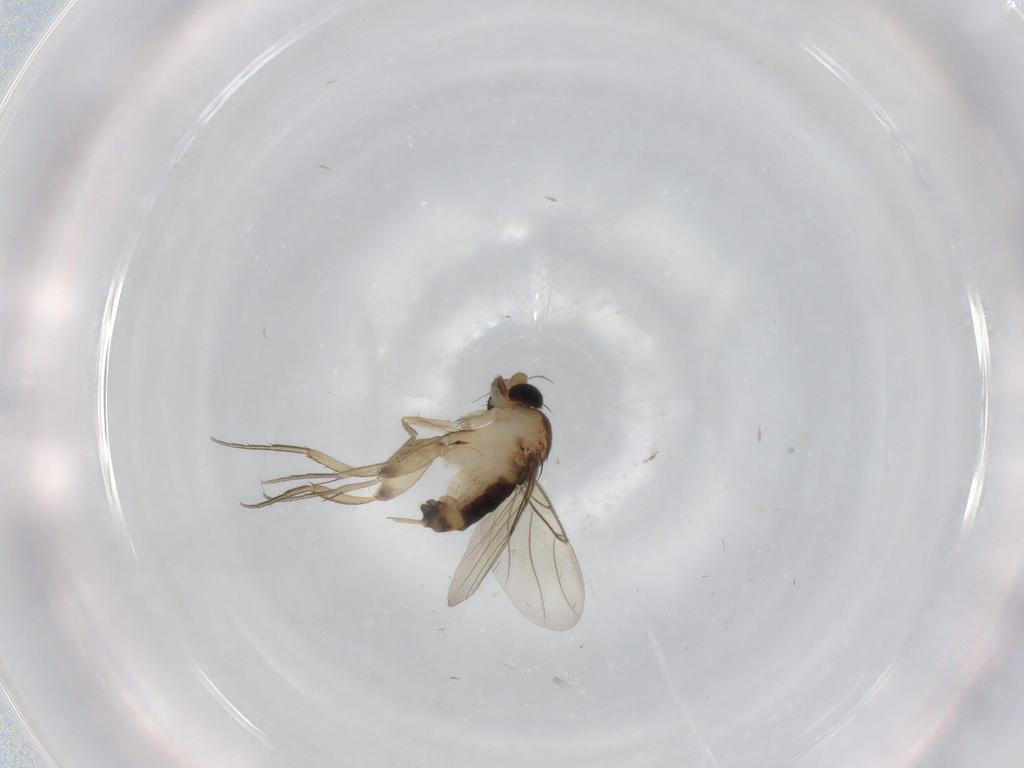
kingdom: Animalia
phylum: Arthropoda
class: Insecta
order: Diptera
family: Phoridae
